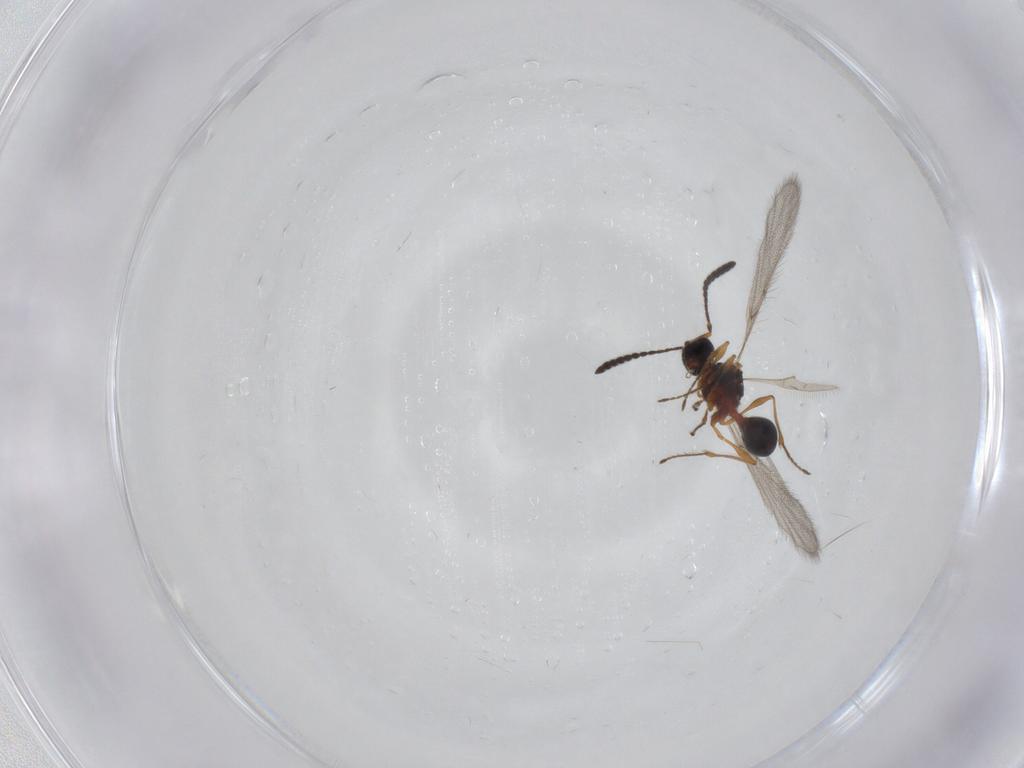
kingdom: Animalia
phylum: Arthropoda
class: Insecta
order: Hymenoptera
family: Diapriidae
